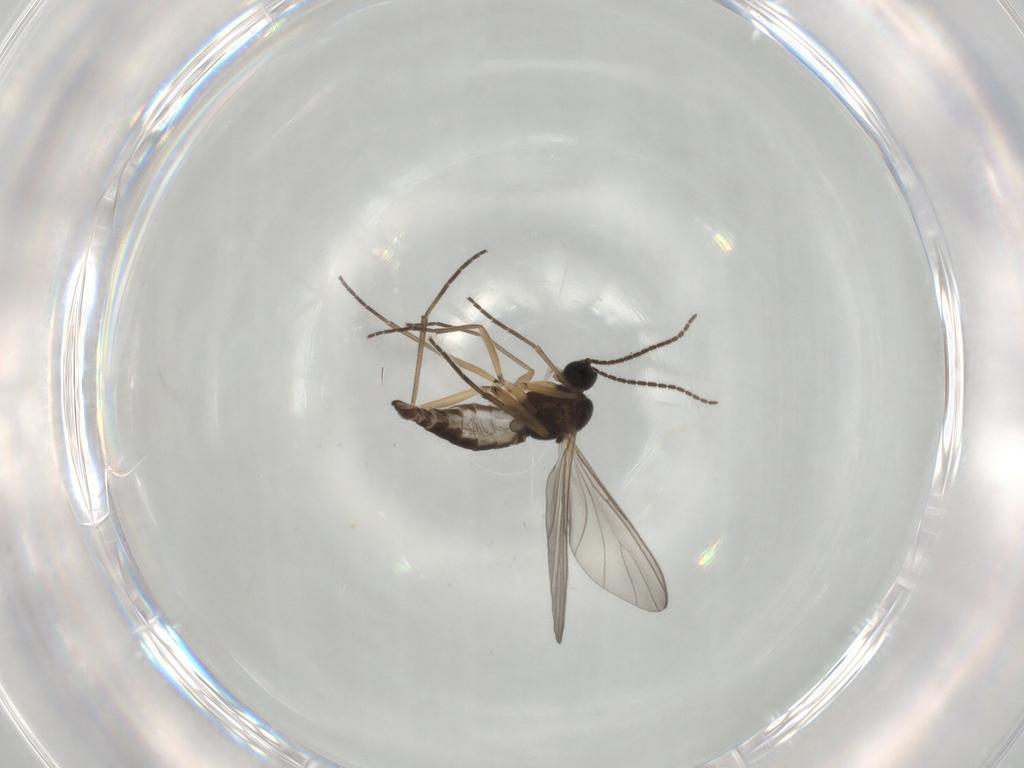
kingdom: Animalia
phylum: Arthropoda
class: Insecta
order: Diptera
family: Sciaridae
